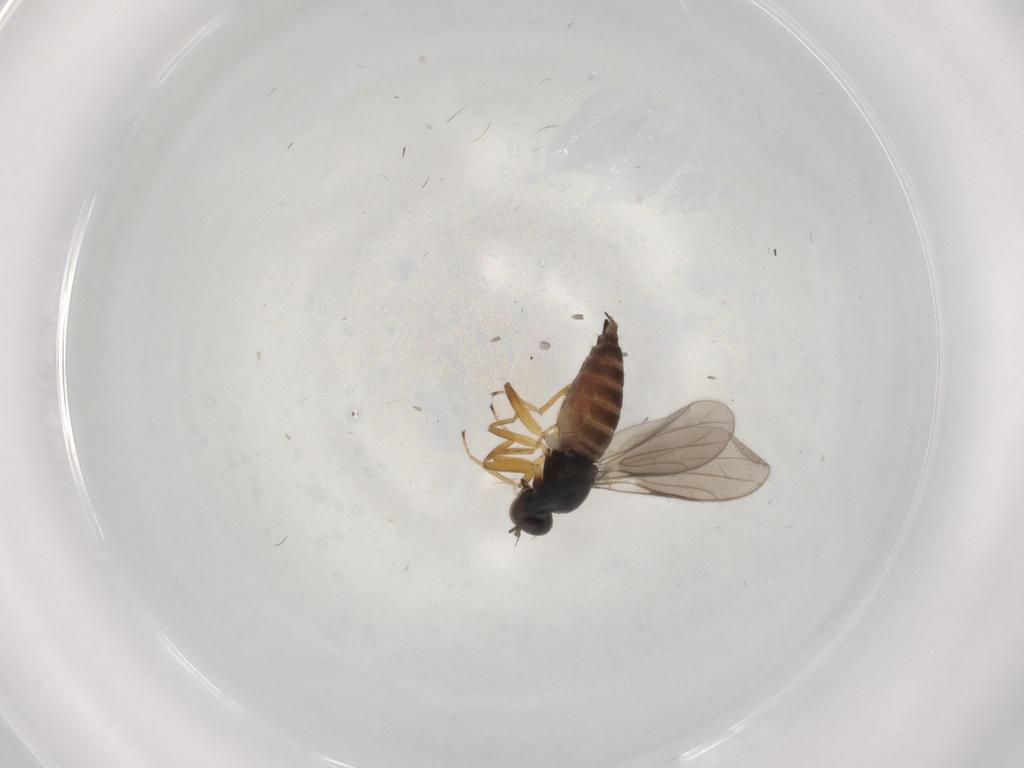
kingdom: Animalia
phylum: Arthropoda
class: Insecta
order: Diptera
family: Hybotidae
